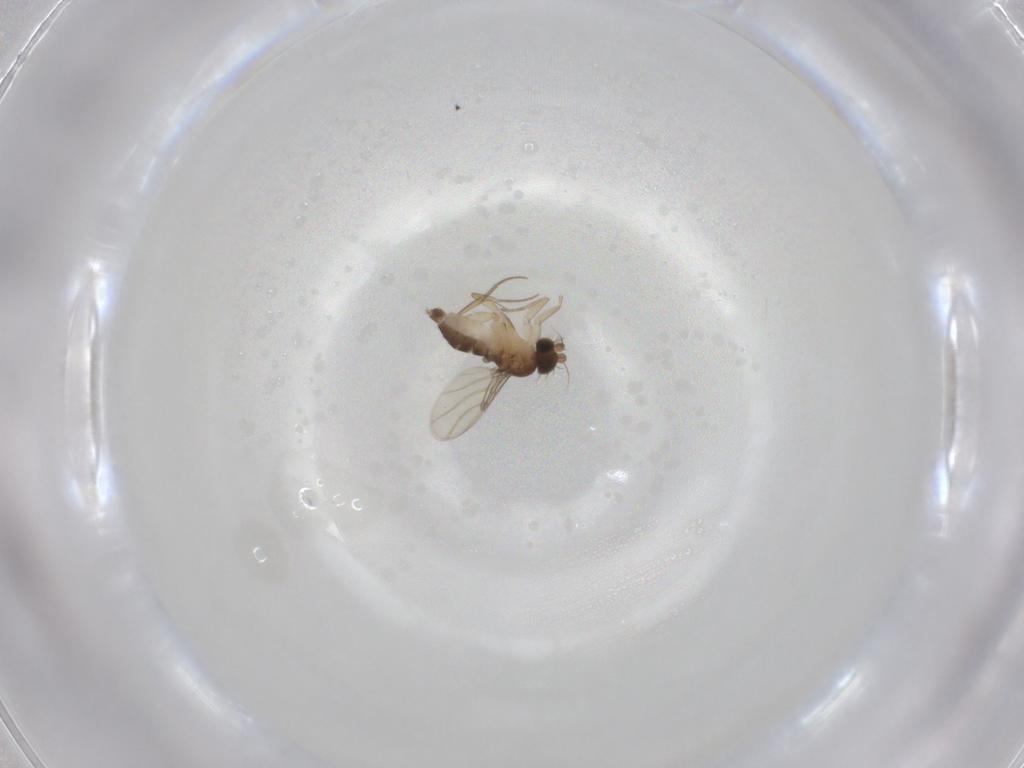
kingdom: Animalia
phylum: Arthropoda
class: Insecta
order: Diptera
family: Phoridae
